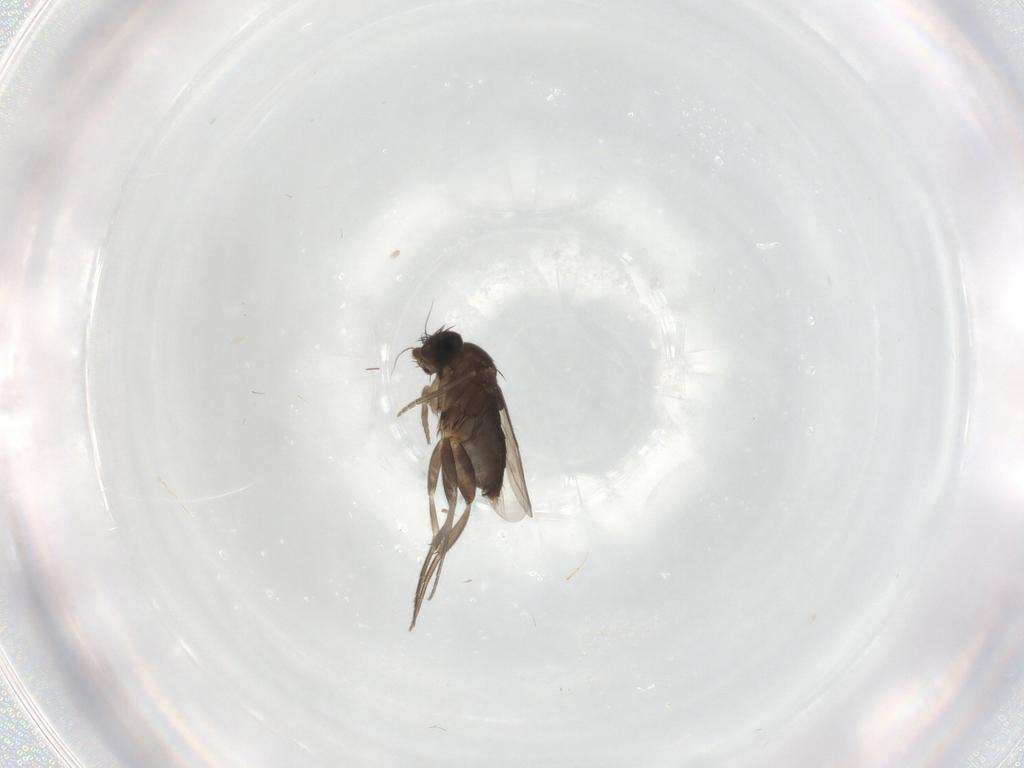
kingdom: Animalia
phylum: Arthropoda
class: Insecta
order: Diptera
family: Phoridae
